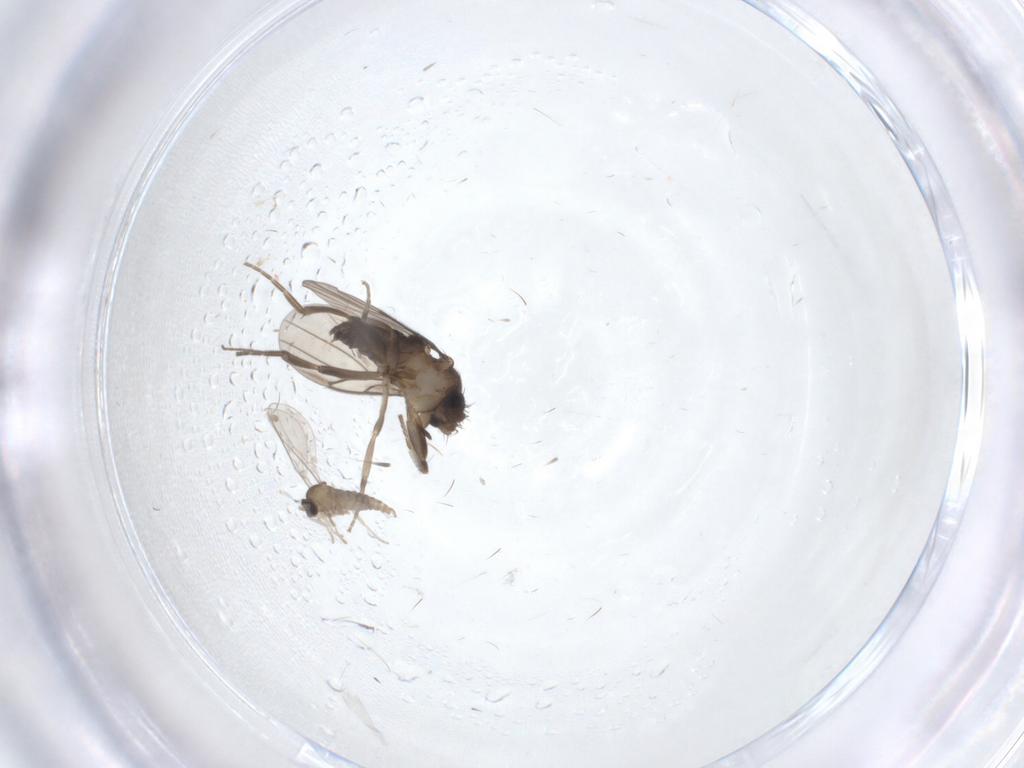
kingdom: Animalia
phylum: Arthropoda
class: Insecta
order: Diptera
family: Chironomidae
